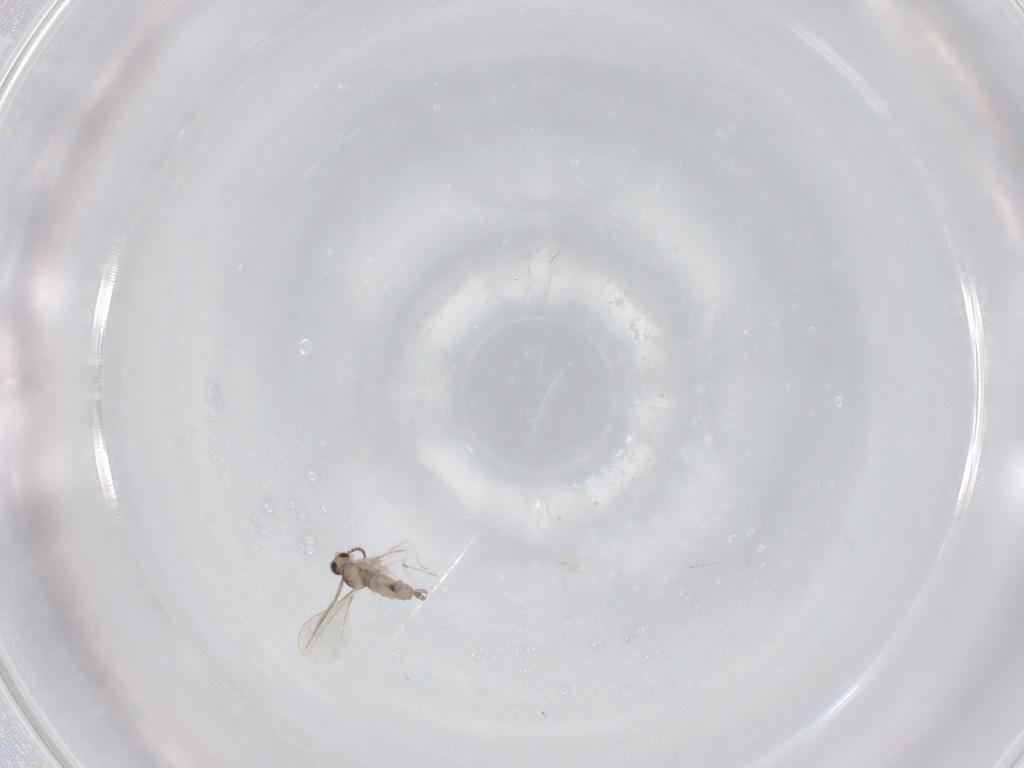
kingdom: Animalia
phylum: Arthropoda
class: Insecta
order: Diptera
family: Cecidomyiidae
